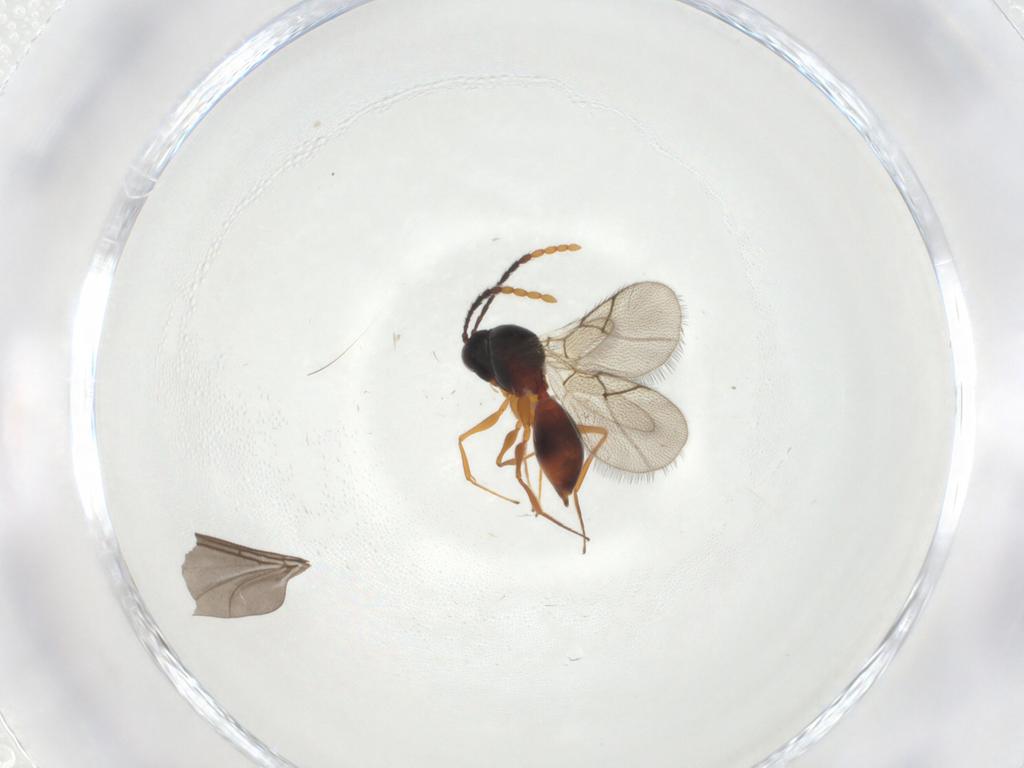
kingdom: Animalia
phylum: Arthropoda
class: Insecta
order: Hymenoptera
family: Figitidae
